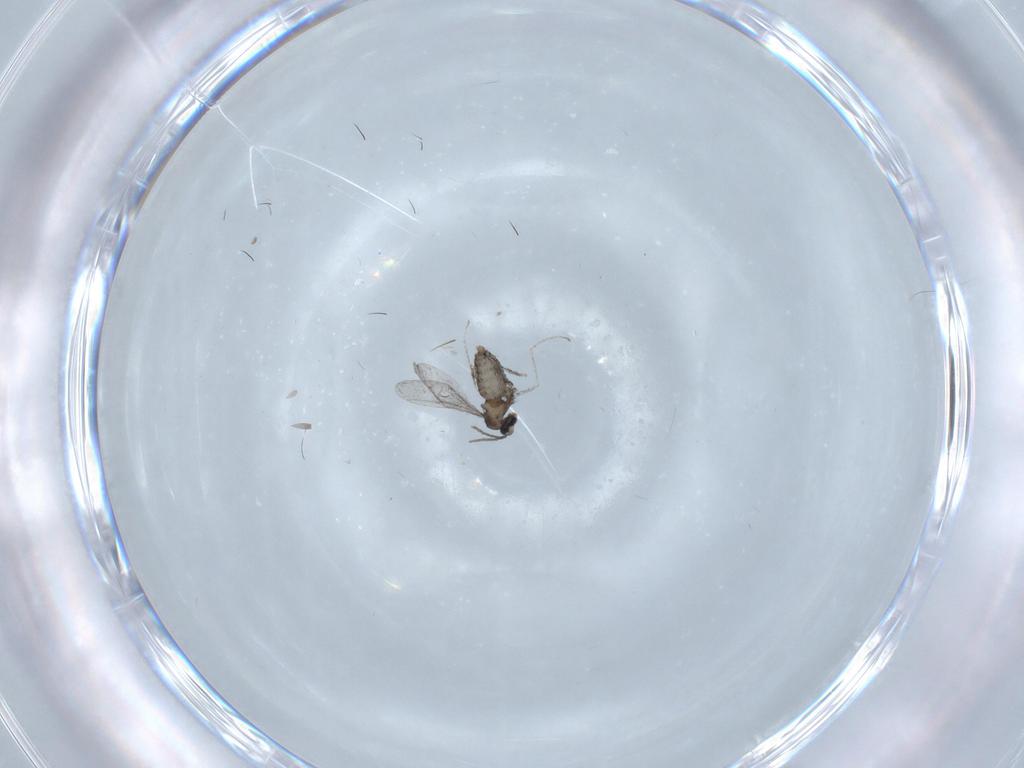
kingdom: Animalia
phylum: Arthropoda
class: Insecta
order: Diptera
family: Cecidomyiidae
